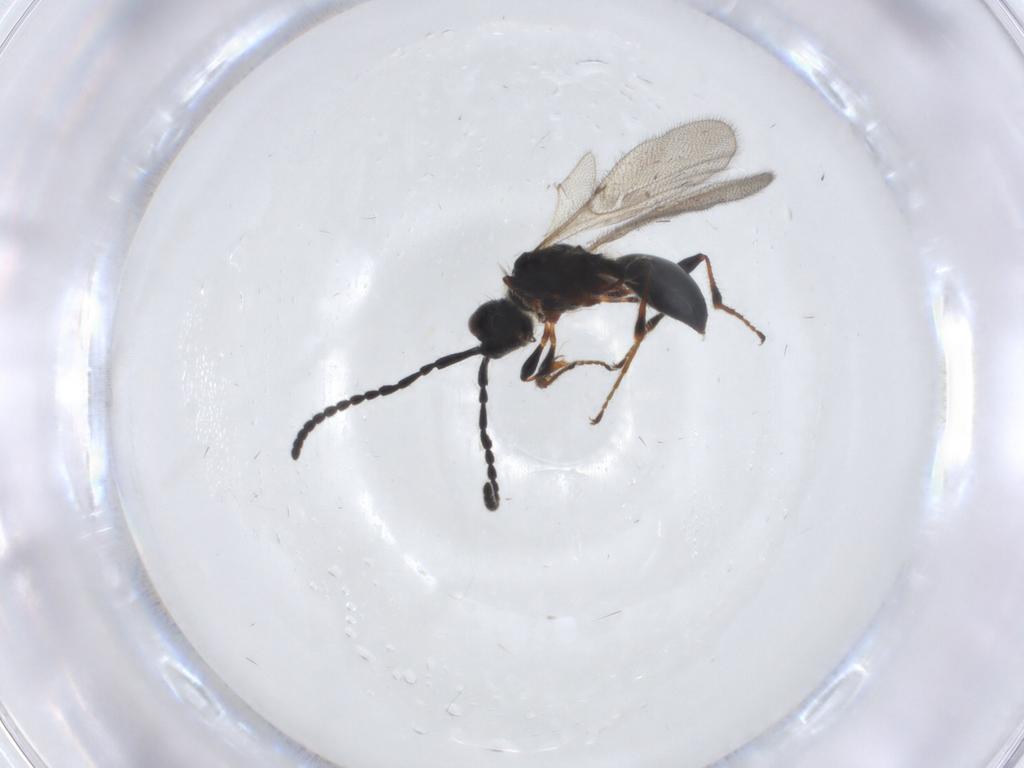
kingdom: Animalia
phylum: Arthropoda
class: Insecta
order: Hymenoptera
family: Diapriidae
